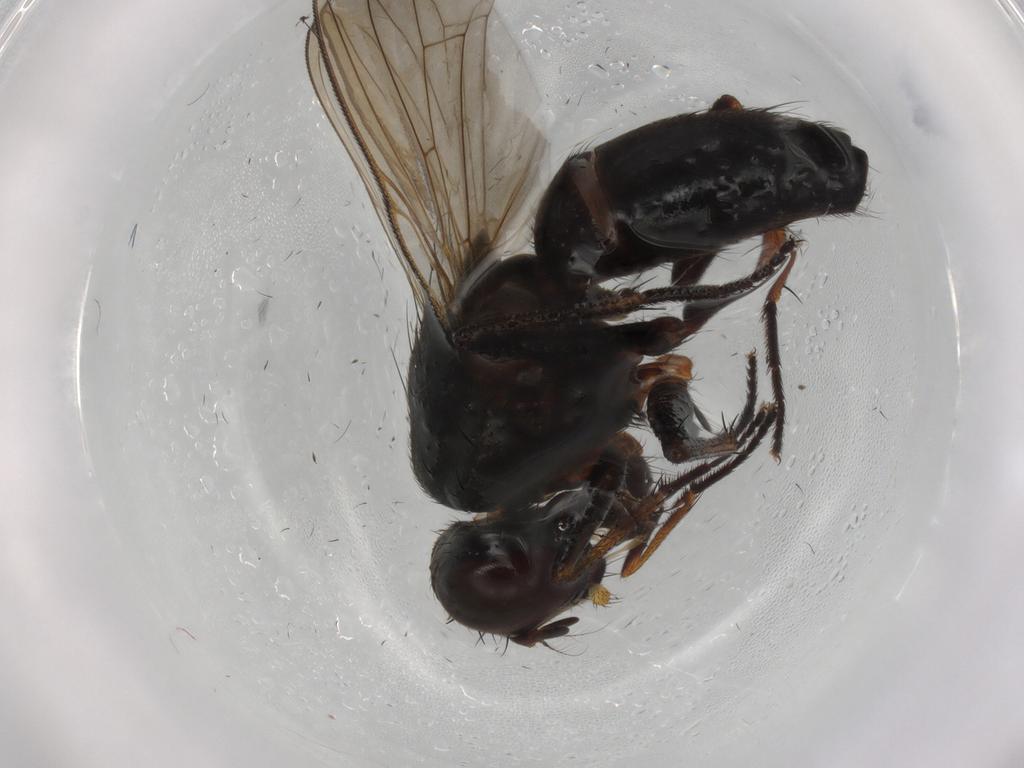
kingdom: Animalia
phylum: Arthropoda
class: Insecta
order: Diptera
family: Muscidae
